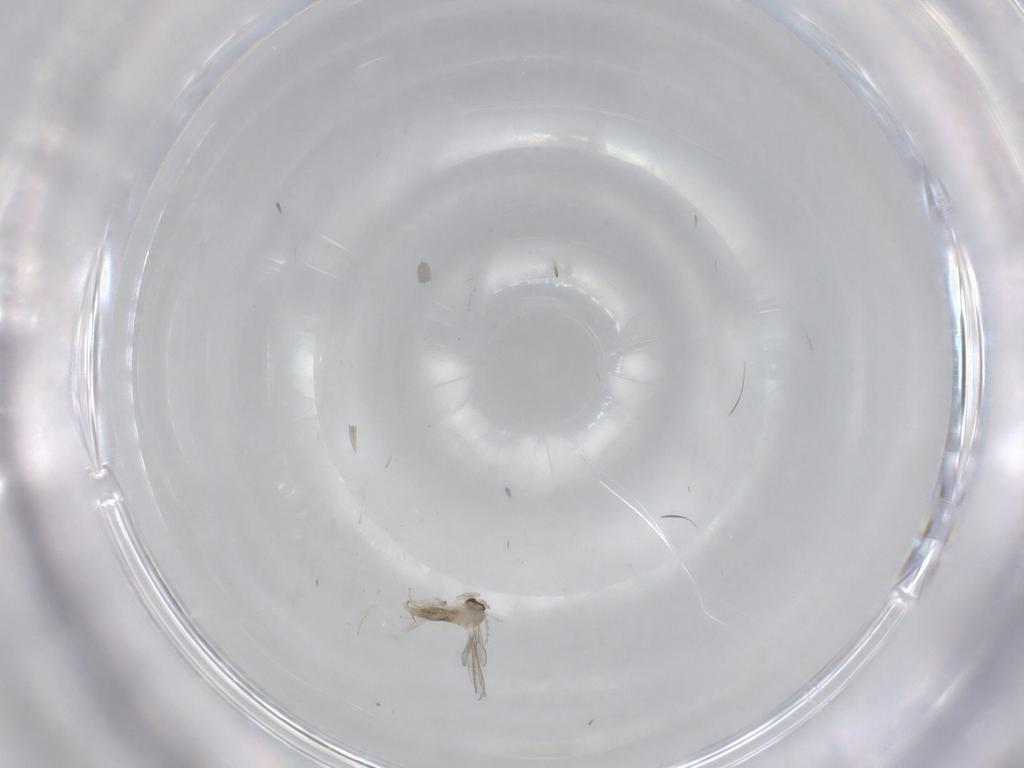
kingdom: Animalia
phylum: Arthropoda
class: Insecta
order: Diptera
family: Cecidomyiidae
